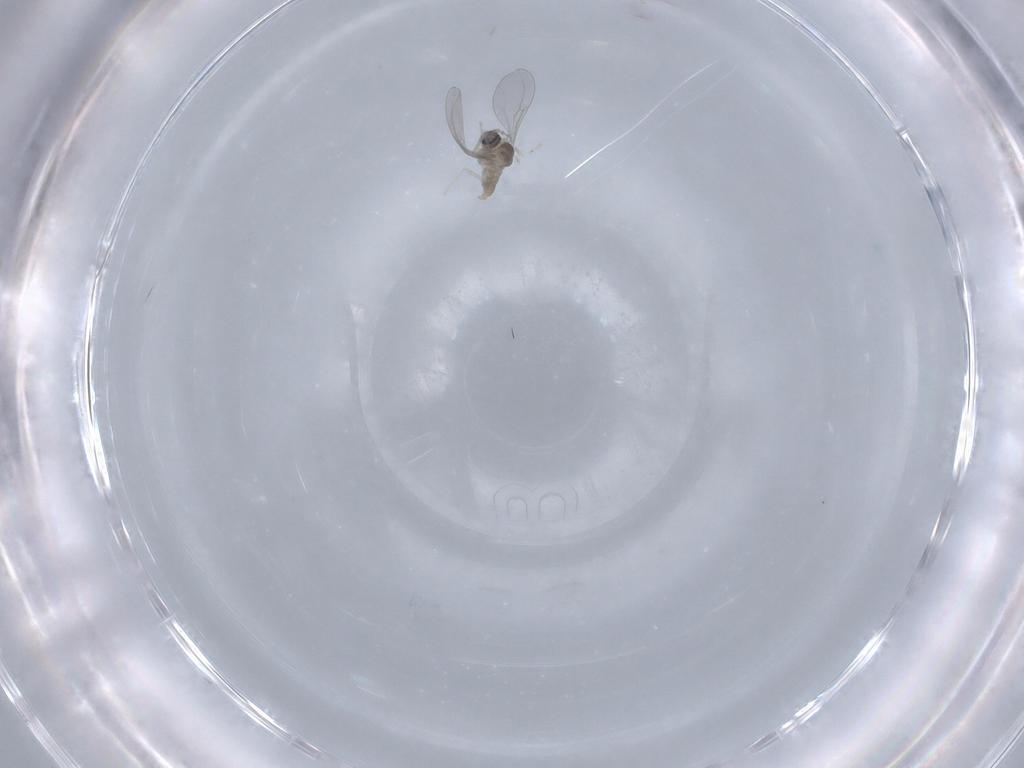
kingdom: Animalia
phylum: Arthropoda
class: Insecta
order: Diptera
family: Cecidomyiidae
